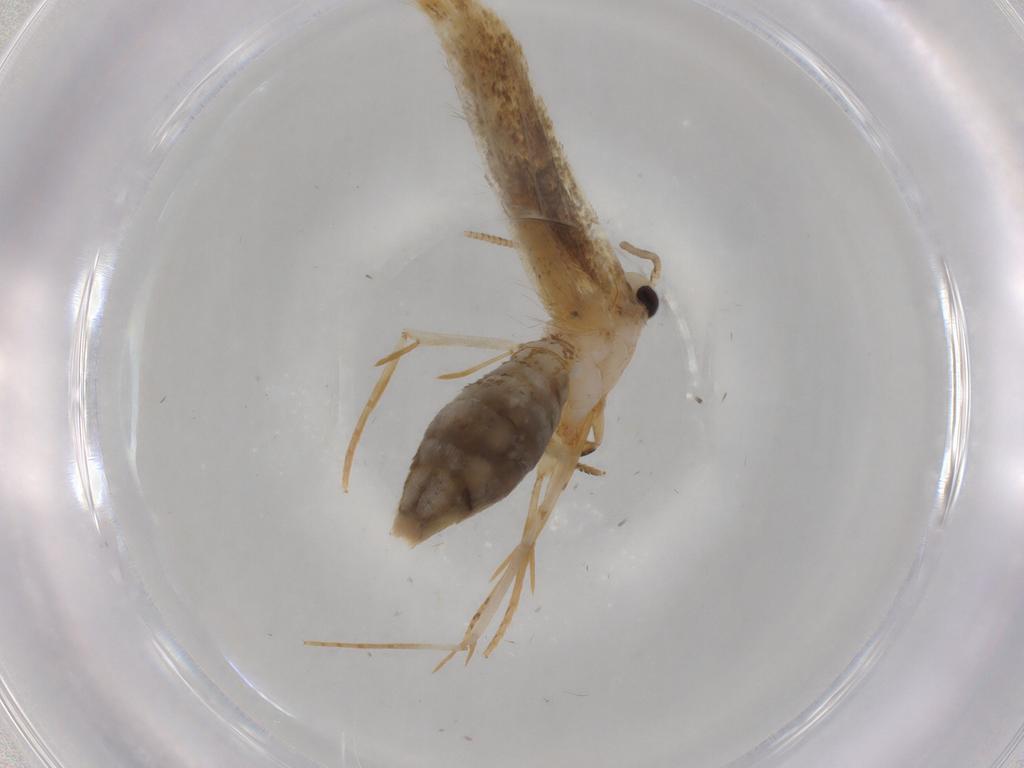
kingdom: Animalia
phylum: Arthropoda
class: Insecta
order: Lepidoptera
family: Tineidae
